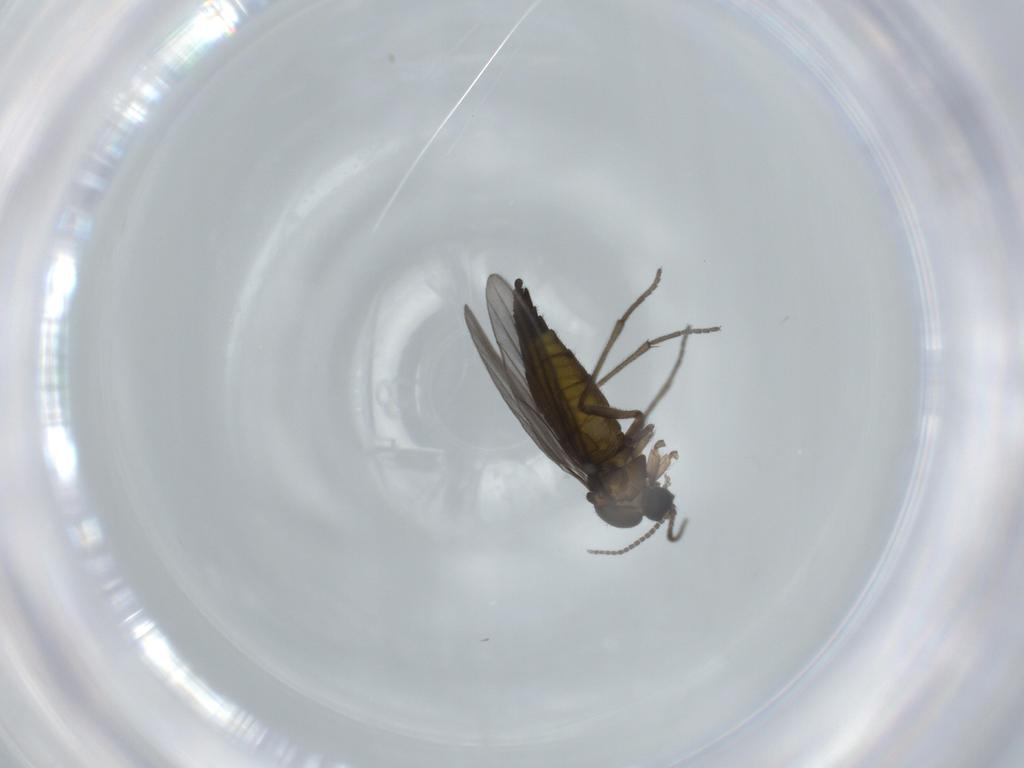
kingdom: Animalia
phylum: Arthropoda
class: Insecta
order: Diptera
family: Sciaridae
